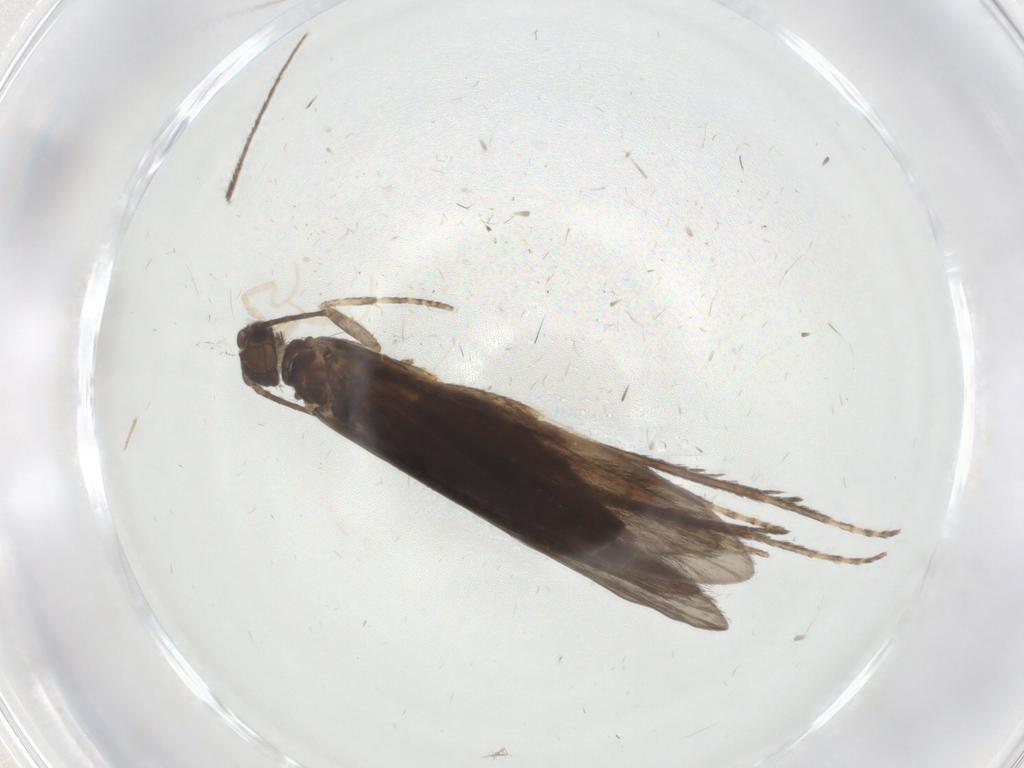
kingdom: Animalia
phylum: Arthropoda
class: Insecta
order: Trichoptera
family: Xiphocentronidae
